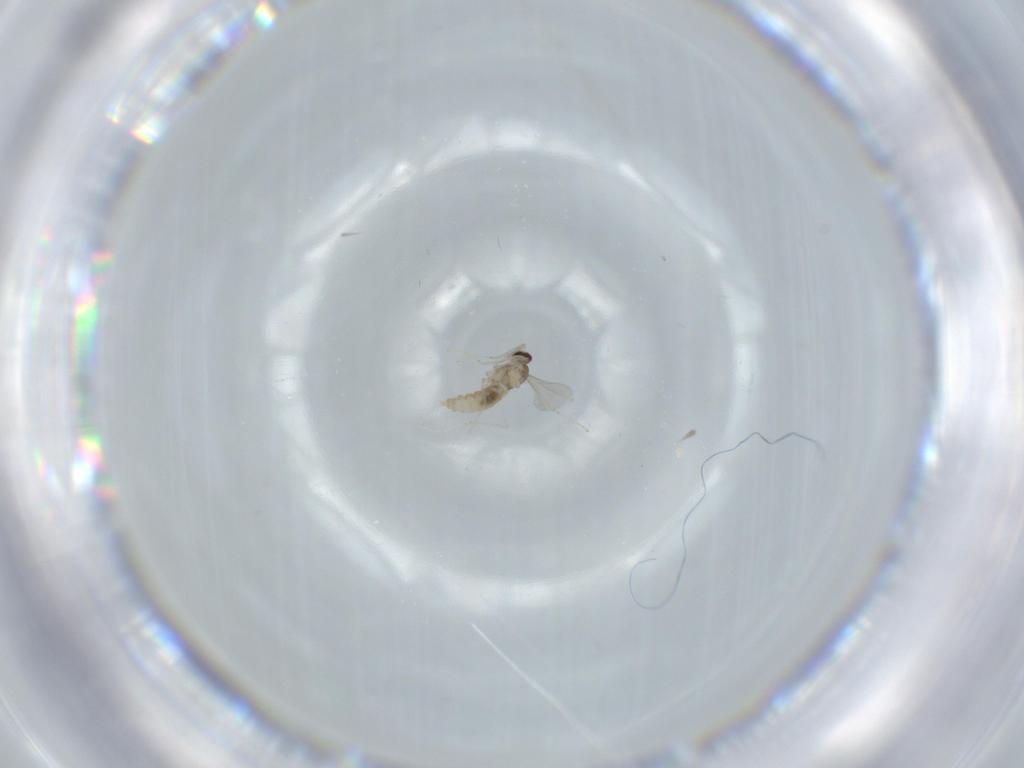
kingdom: Animalia
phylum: Arthropoda
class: Insecta
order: Diptera
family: Cecidomyiidae
